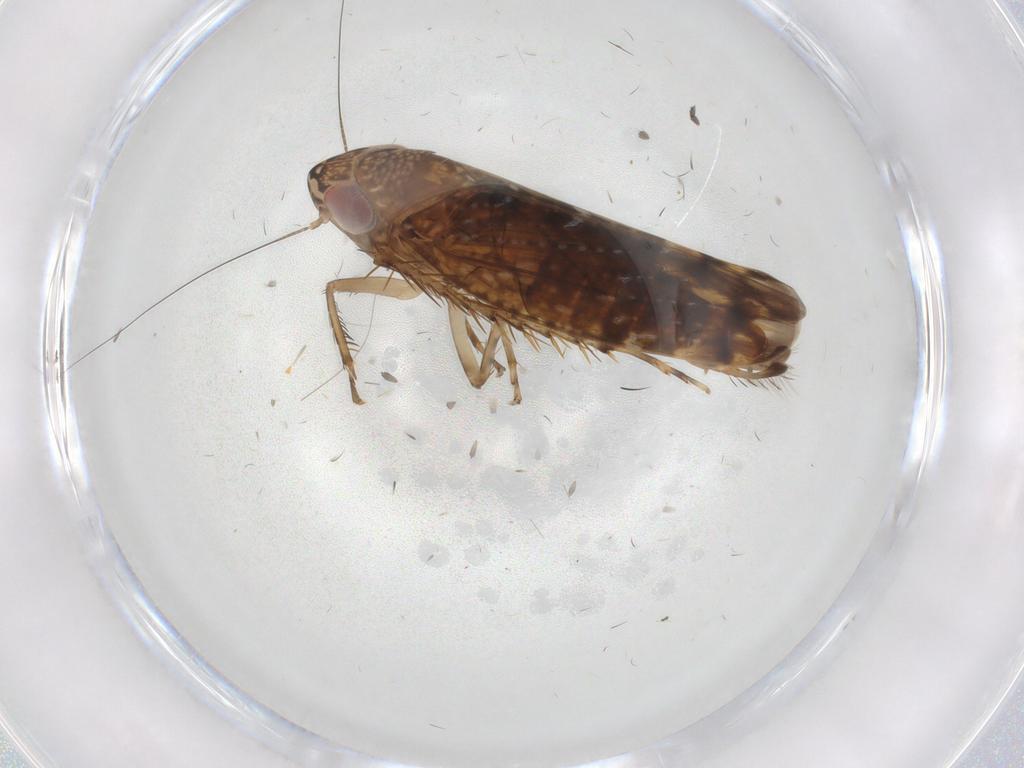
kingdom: Animalia
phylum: Arthropoda
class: Insecta
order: Hemiptera
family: Cicadellidae
